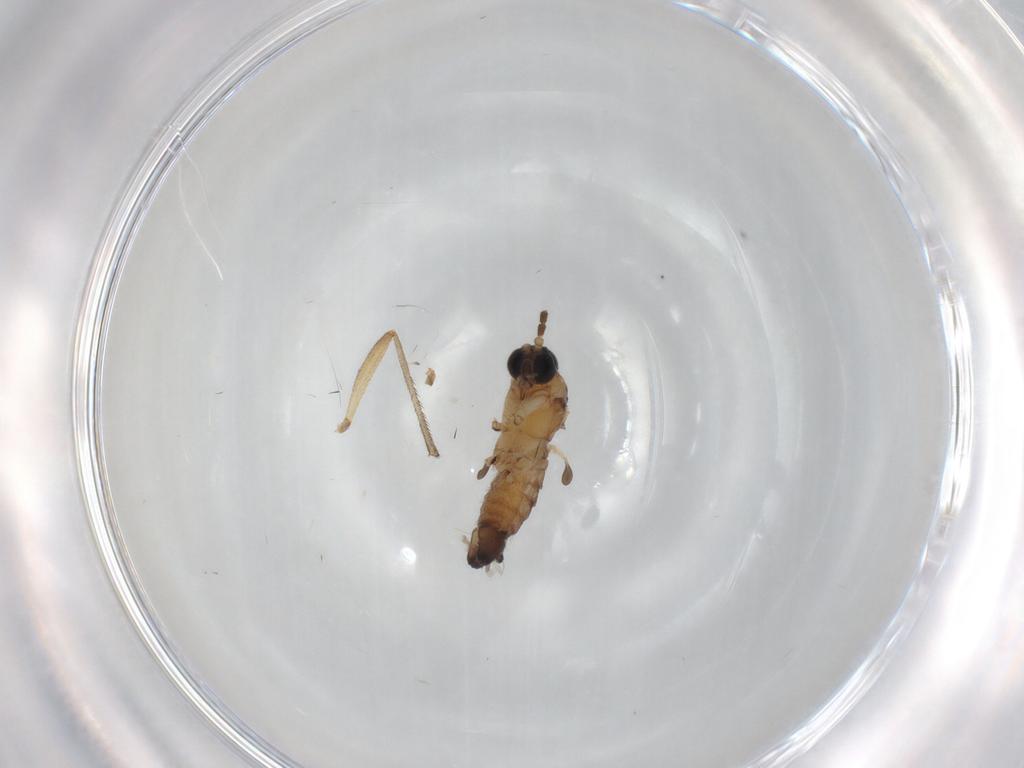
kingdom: Animalia
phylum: Arthropoda
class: Insecta
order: Diptera
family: Sciaridae
